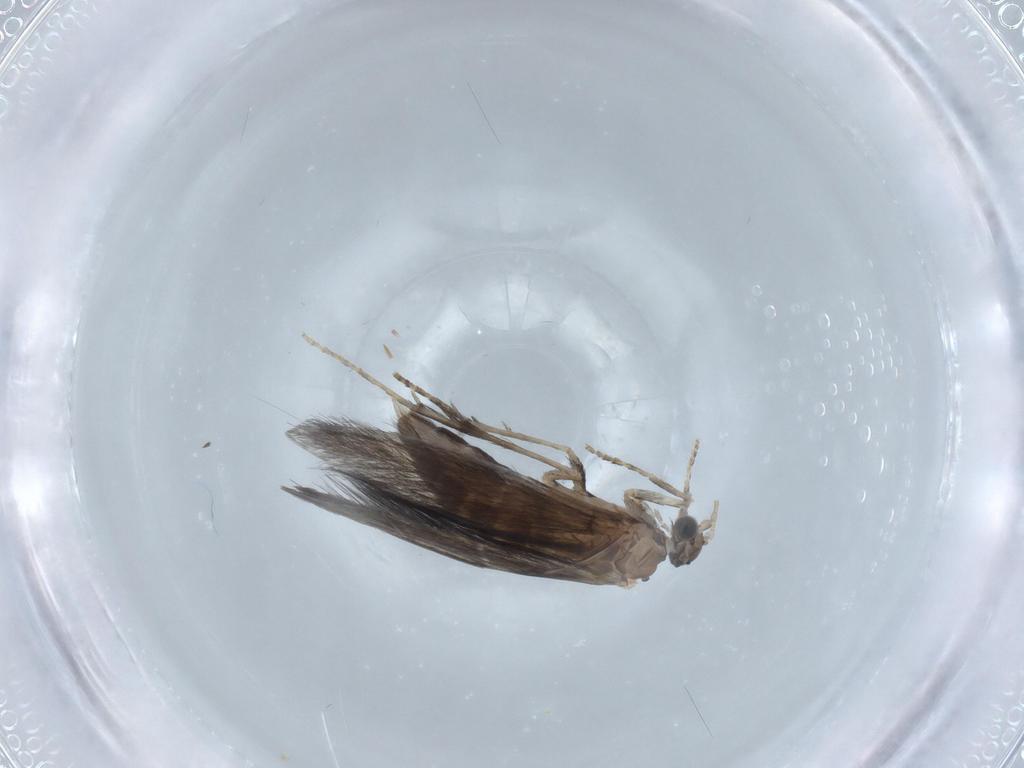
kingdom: Animalia
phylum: Arthropoda
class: Insecta
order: Trichoptera
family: Hydroptilidae
